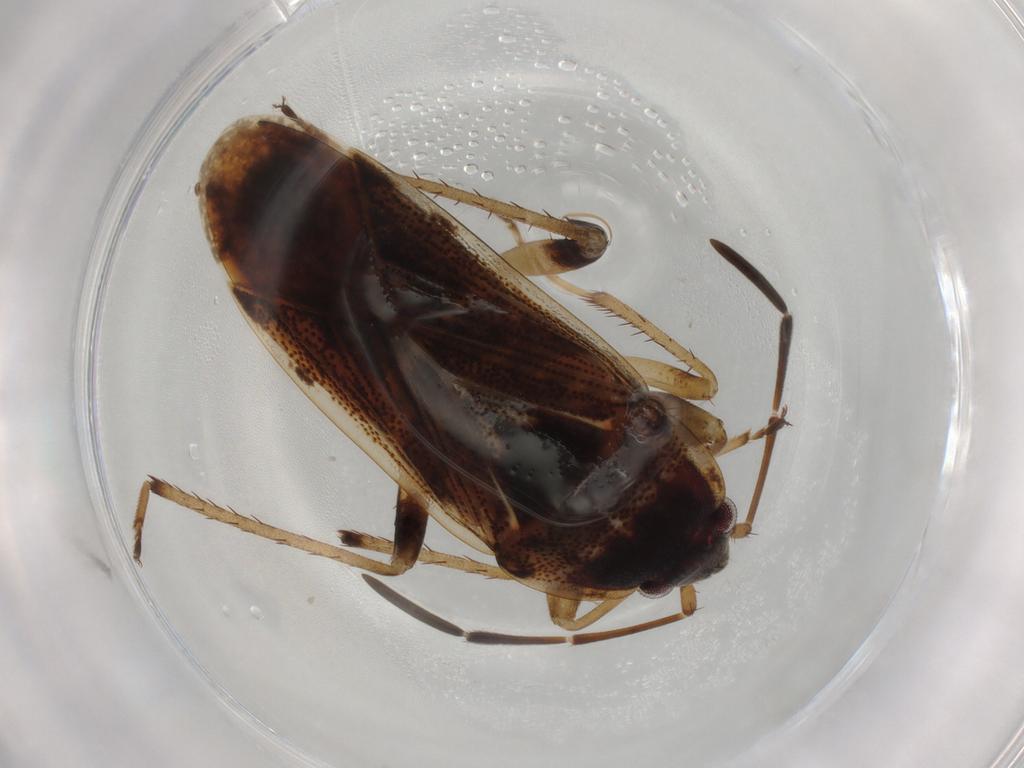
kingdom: Animalia
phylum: Arthropoda
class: Insecta
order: Hemiptera
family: Rhyparochromidae
